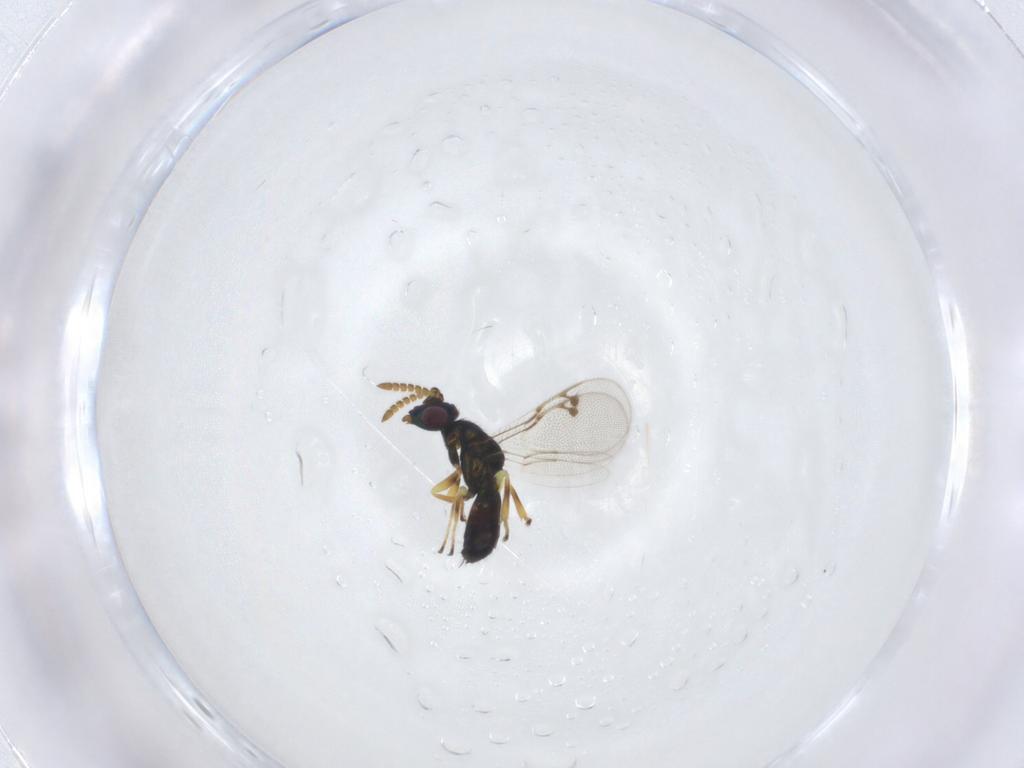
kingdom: Animalia
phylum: Arthropoda
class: Insecta
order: Hymenoptera
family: Pirenidae
